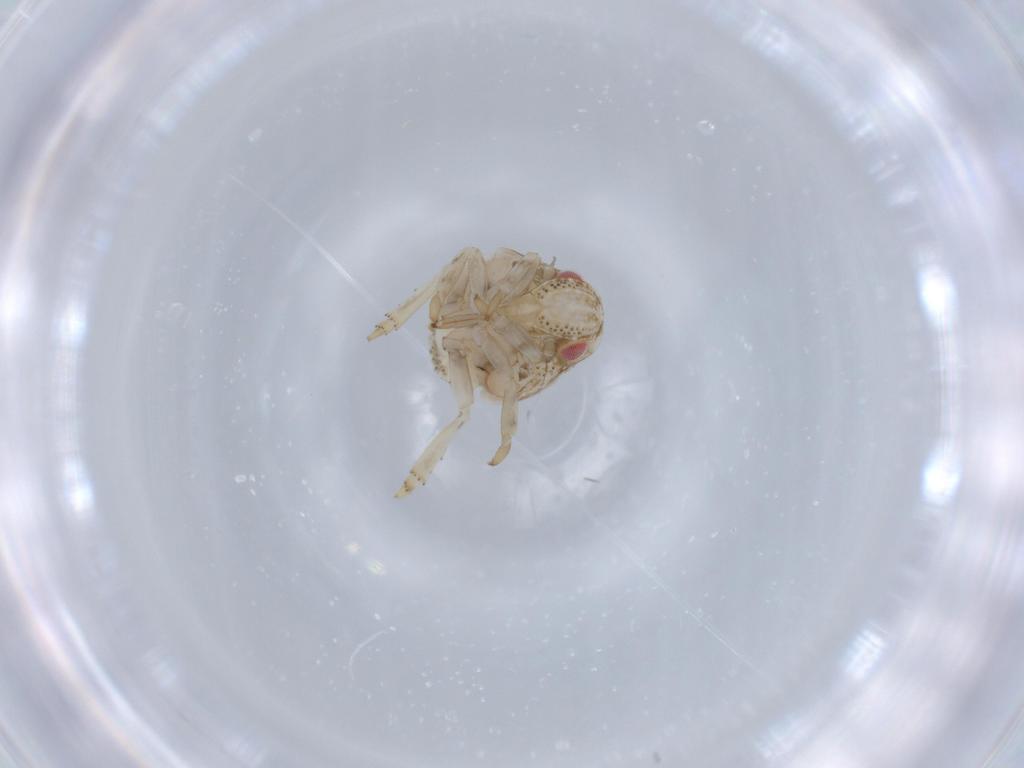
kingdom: Animalia
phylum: Arthropoda
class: Insecta
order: Hemiptera
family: Acanaloniidae
